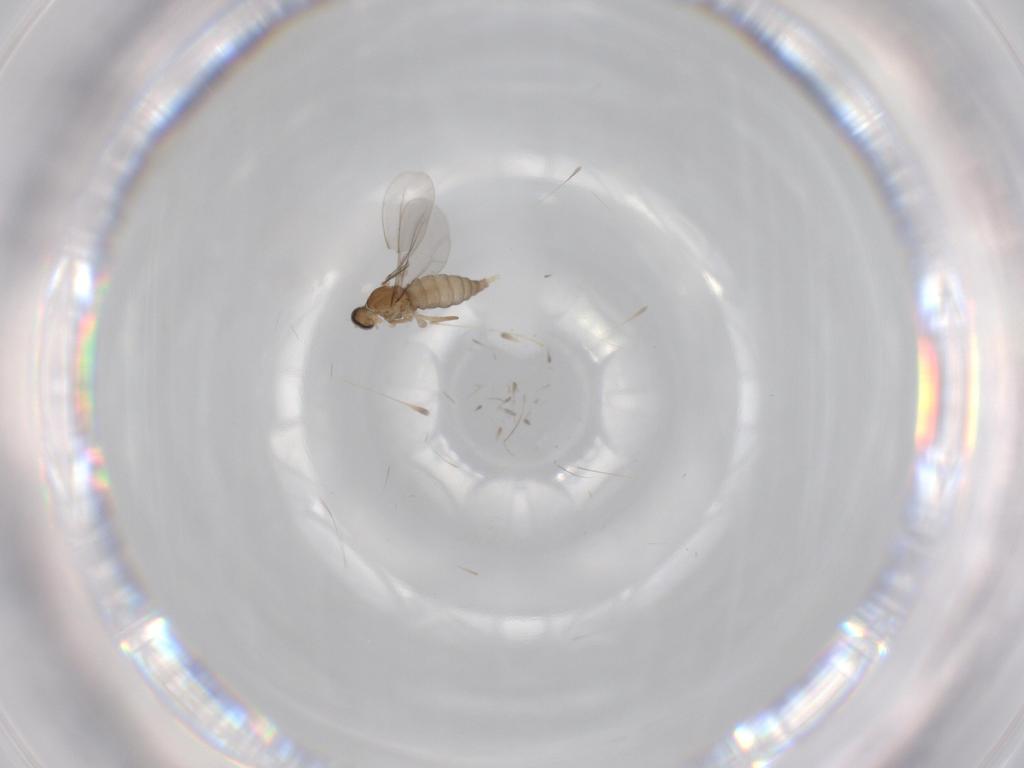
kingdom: Animalia
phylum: Arthropoda
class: Insecta
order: Diptera
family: Cecidomyiidae
